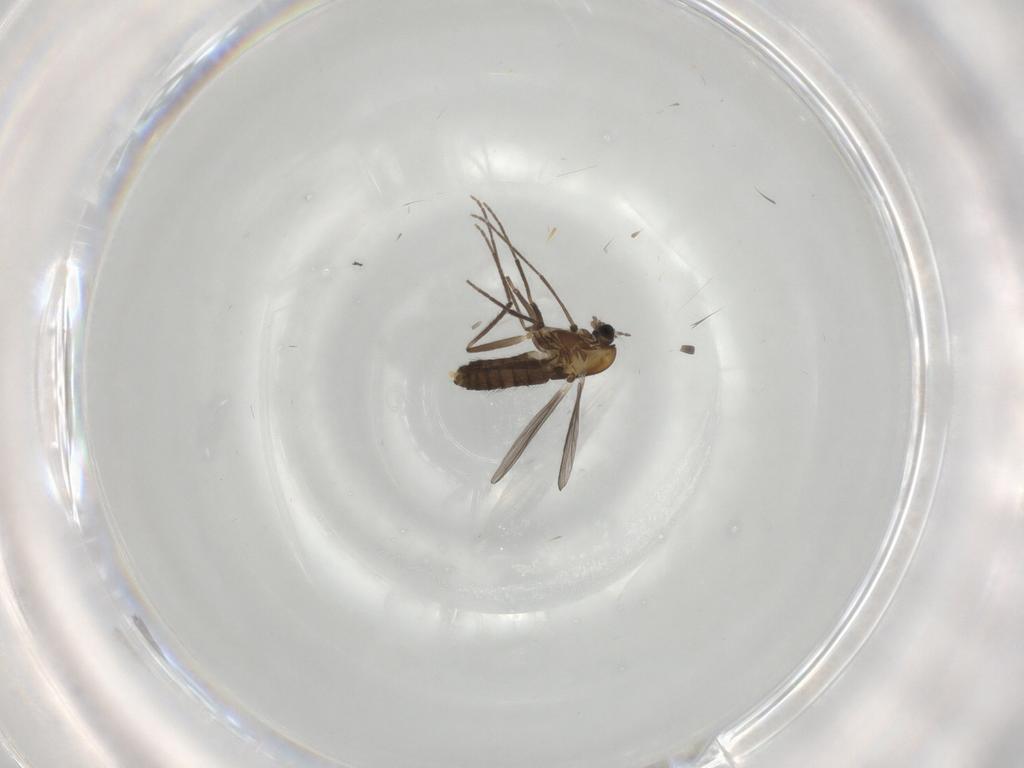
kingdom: Animalia
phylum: Arthropoda
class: Insecta
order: Diptera
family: Chironomidae
